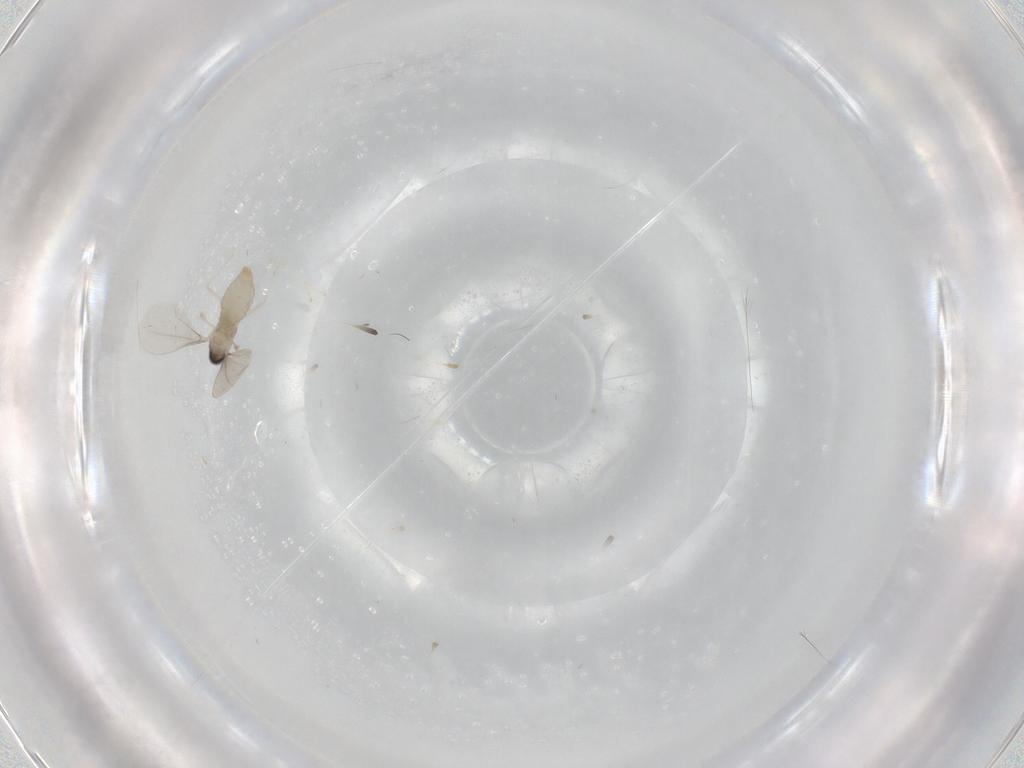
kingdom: Animalia
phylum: Arthropoda
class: Insecta
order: Diptera
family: Cecidomyiidae
